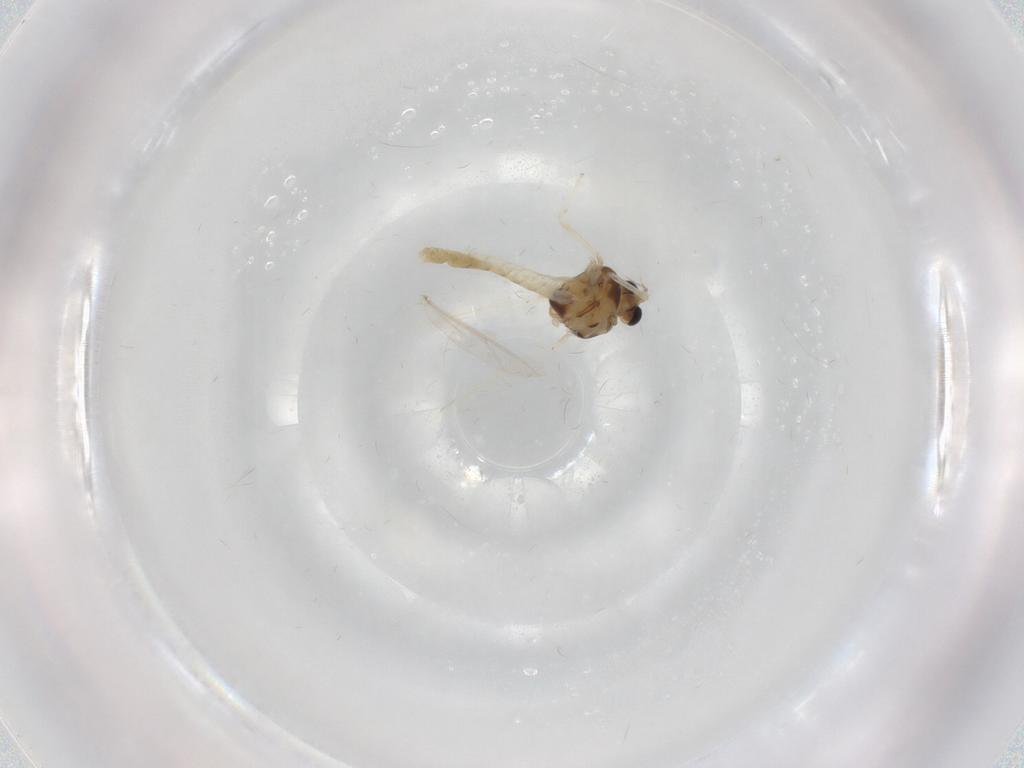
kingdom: Animalia
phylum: Arthropoda
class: Insecta
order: Diptera
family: Chironomidae
